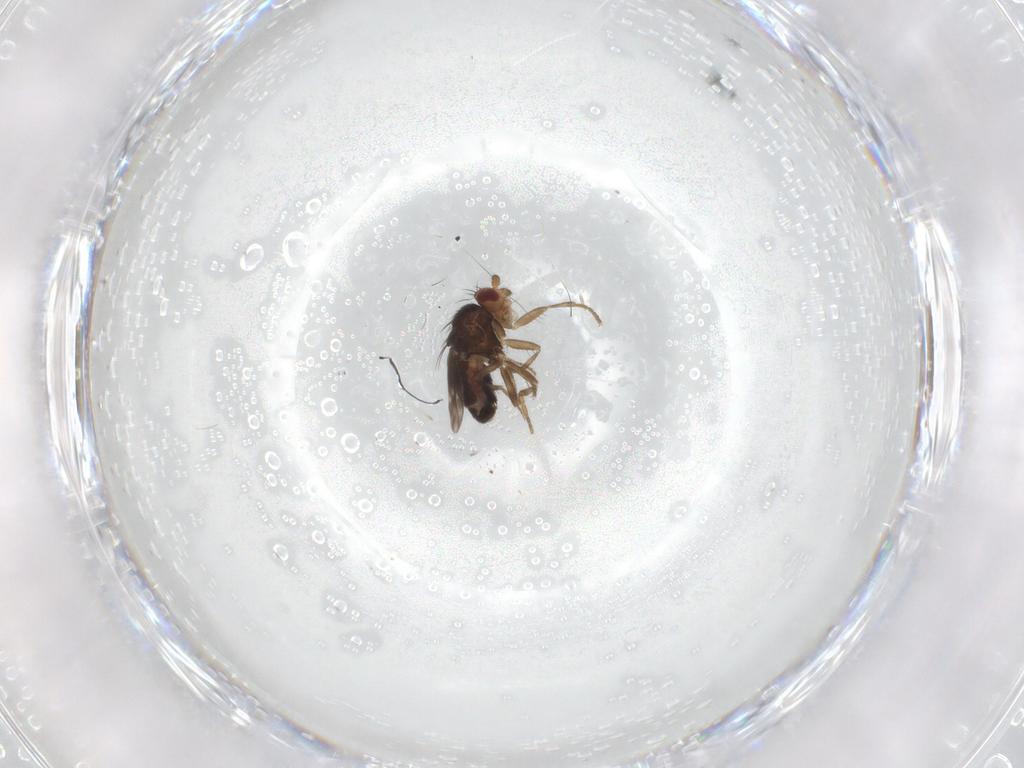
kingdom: Animalia
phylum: Arthropoda
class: Insecta
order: Diptera
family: Sphaeroceridae
